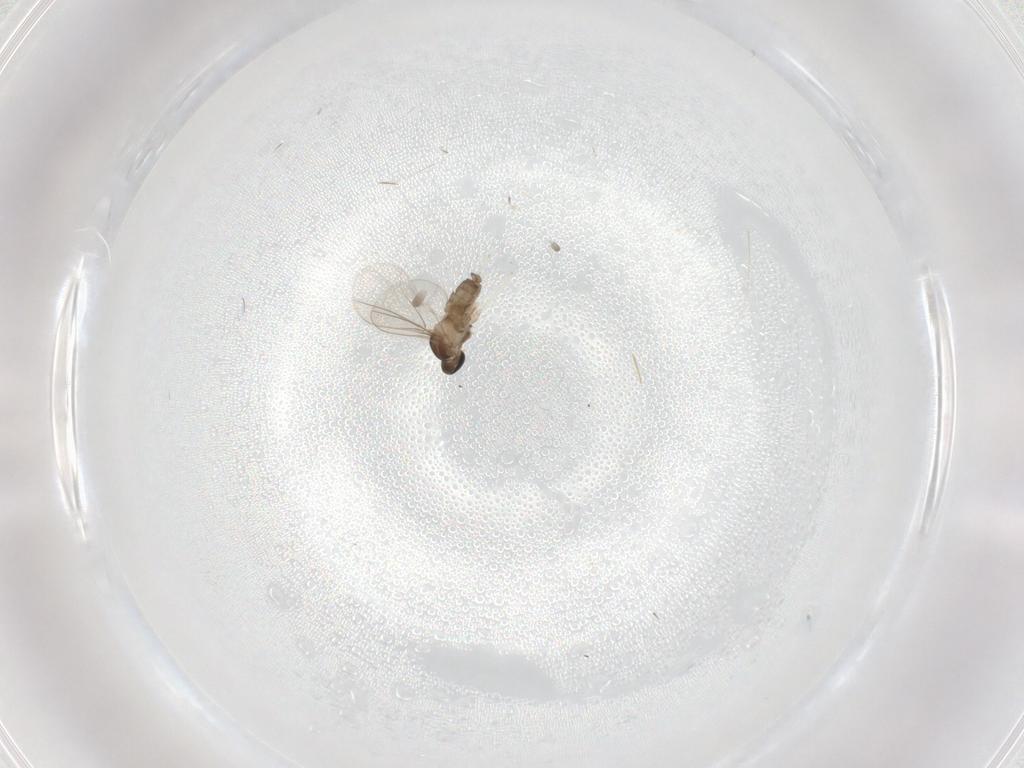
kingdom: Animalia
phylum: Arthropoda
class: Insecta
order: Diptera
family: Cecidomyiidae
